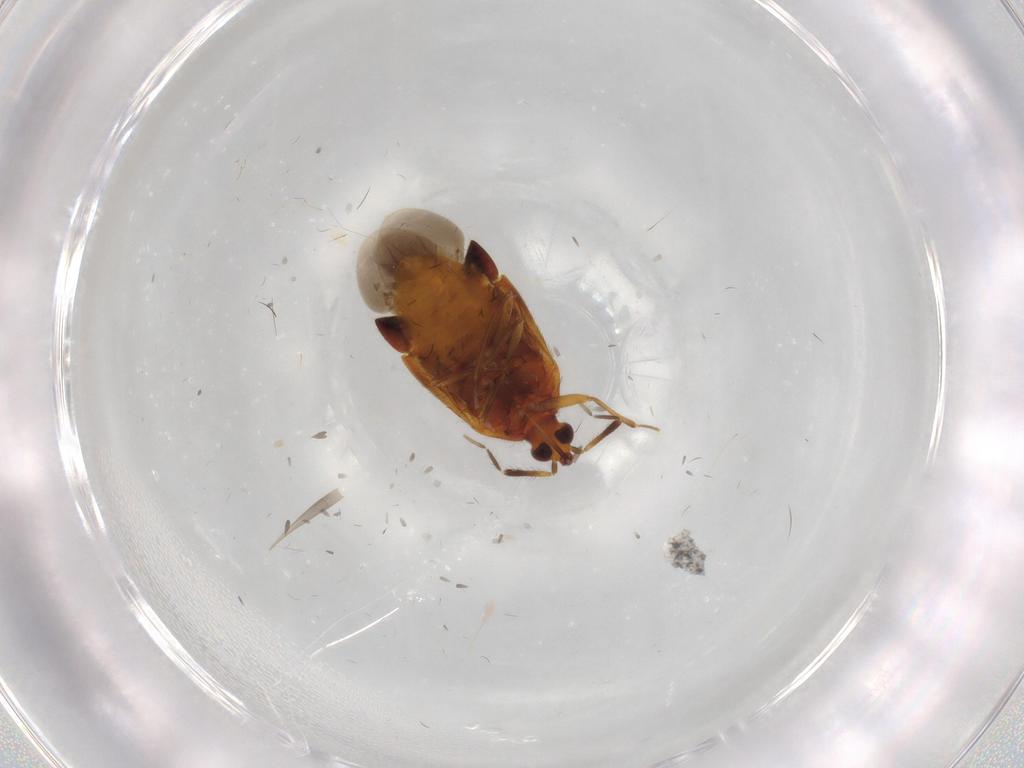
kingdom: Animalia
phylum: Arthropoda
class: Insecta
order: Hemiptera
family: Anthocoridae
